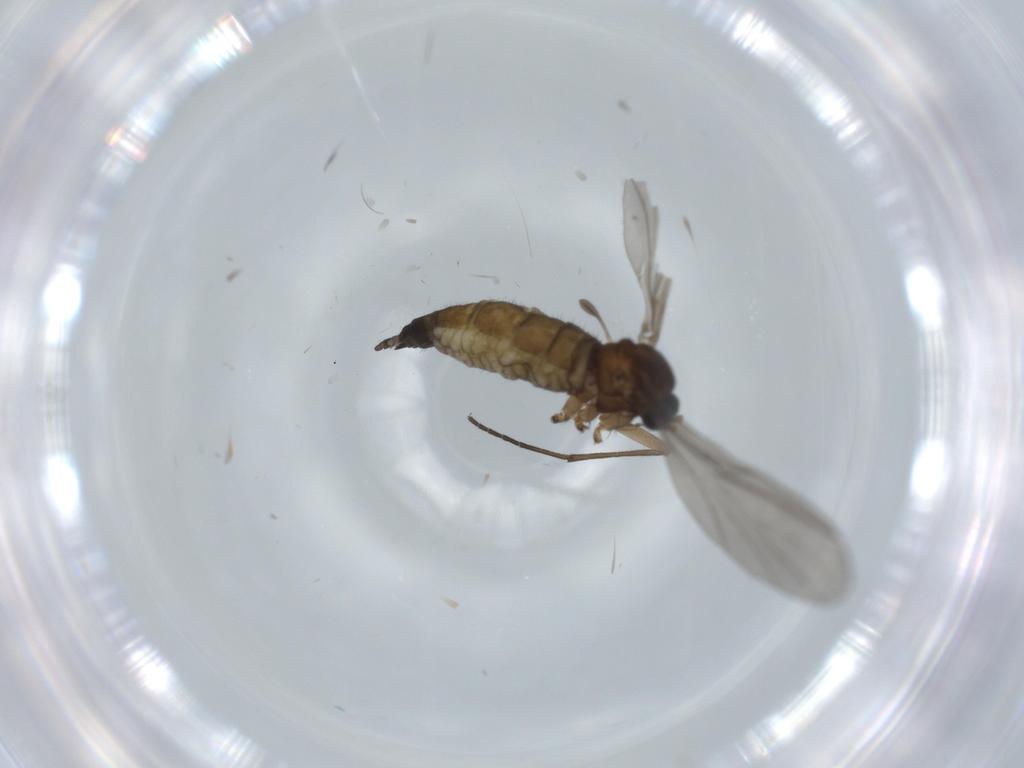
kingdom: Animalia
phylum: Arthropoda
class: Insecta
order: Diptera
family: Sciaridae
